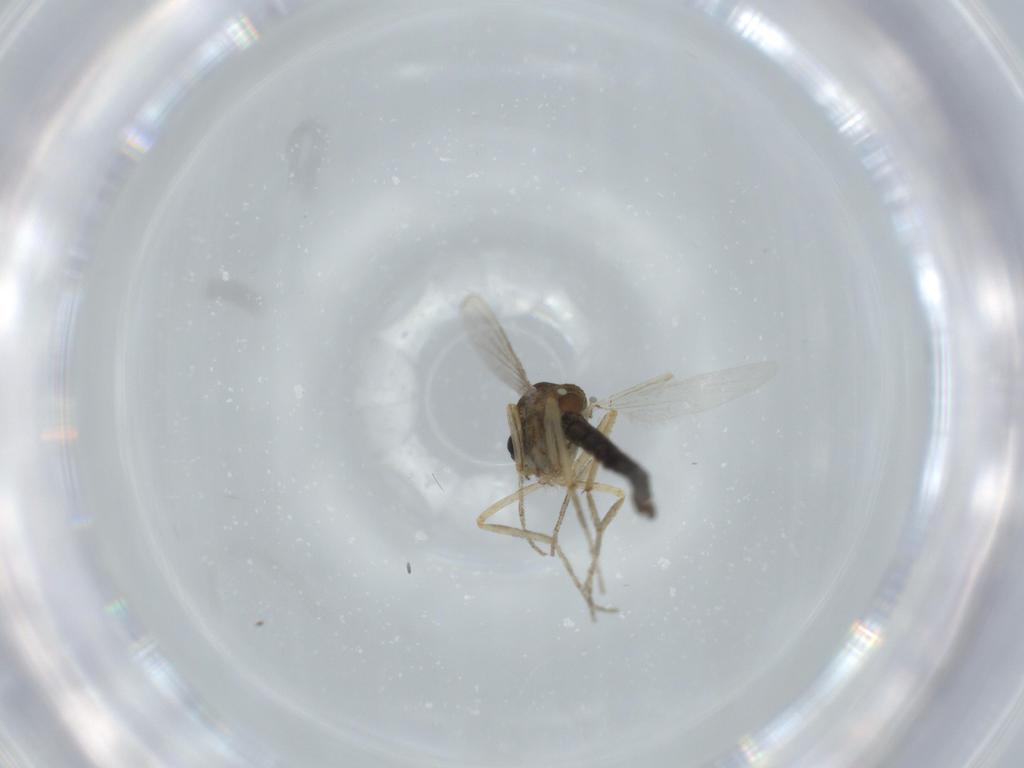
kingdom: Animalia
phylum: Arthropoda
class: Insecta
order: Diptera
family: Ceratopogonidae
